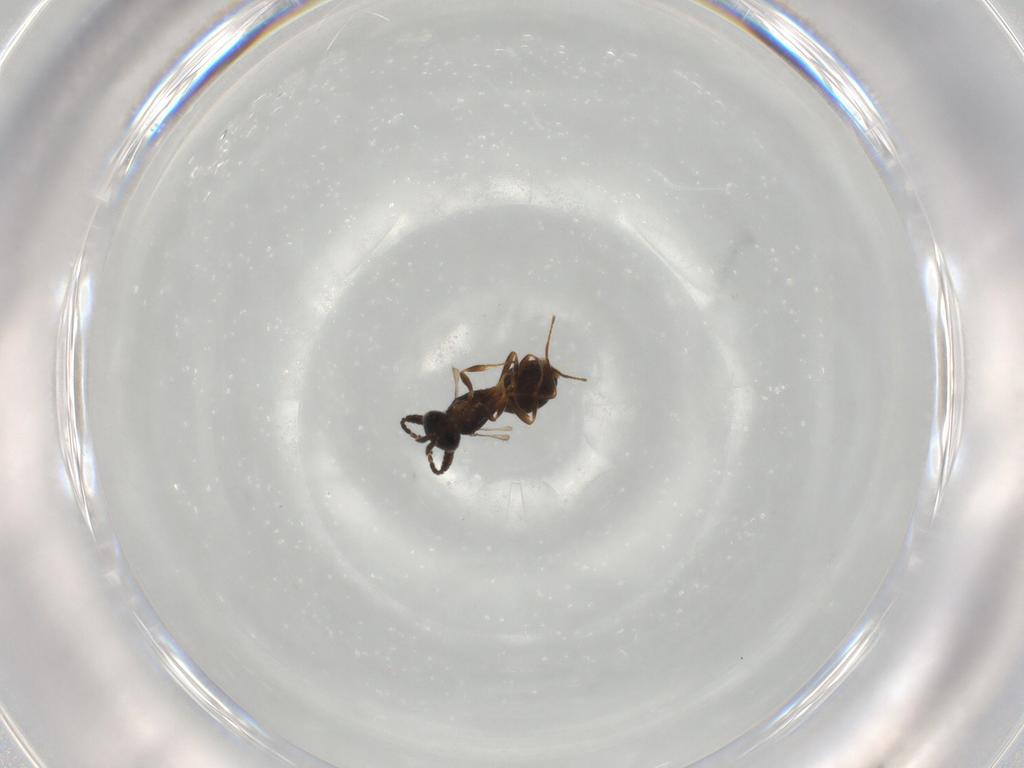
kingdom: Animalia
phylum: Arthropoda
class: Insecta
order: Hymenoptera
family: Scelionidae
